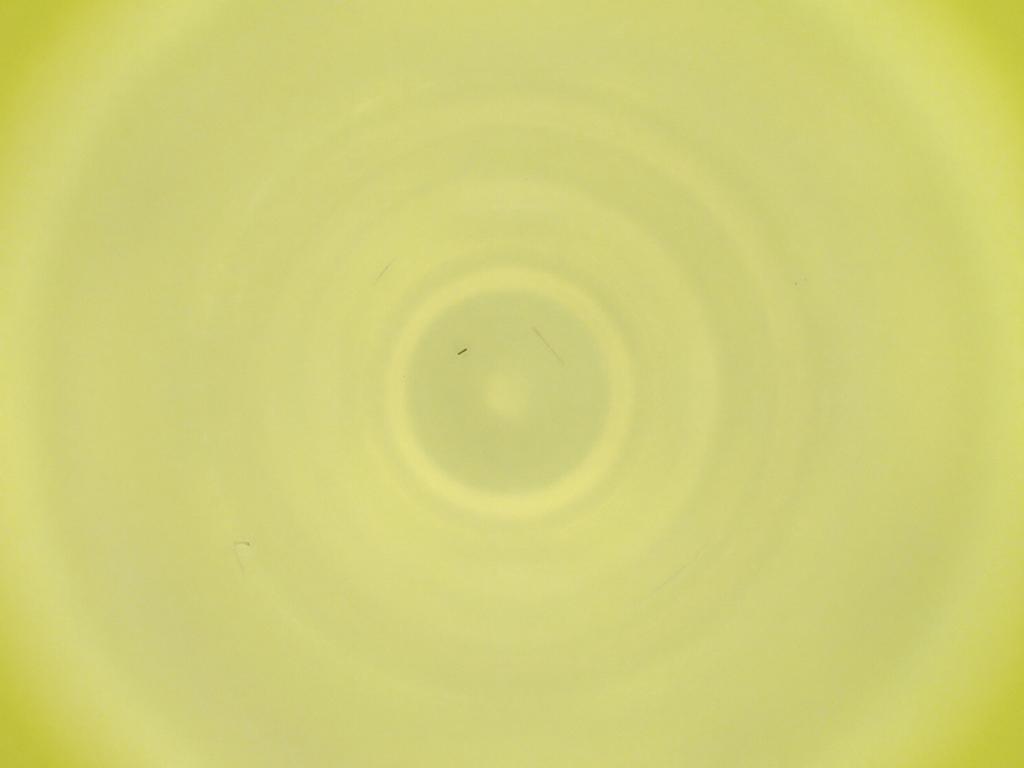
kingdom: Animalia
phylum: Arthropoda
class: Insecta
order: Diptera
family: Cecidomyiidae
